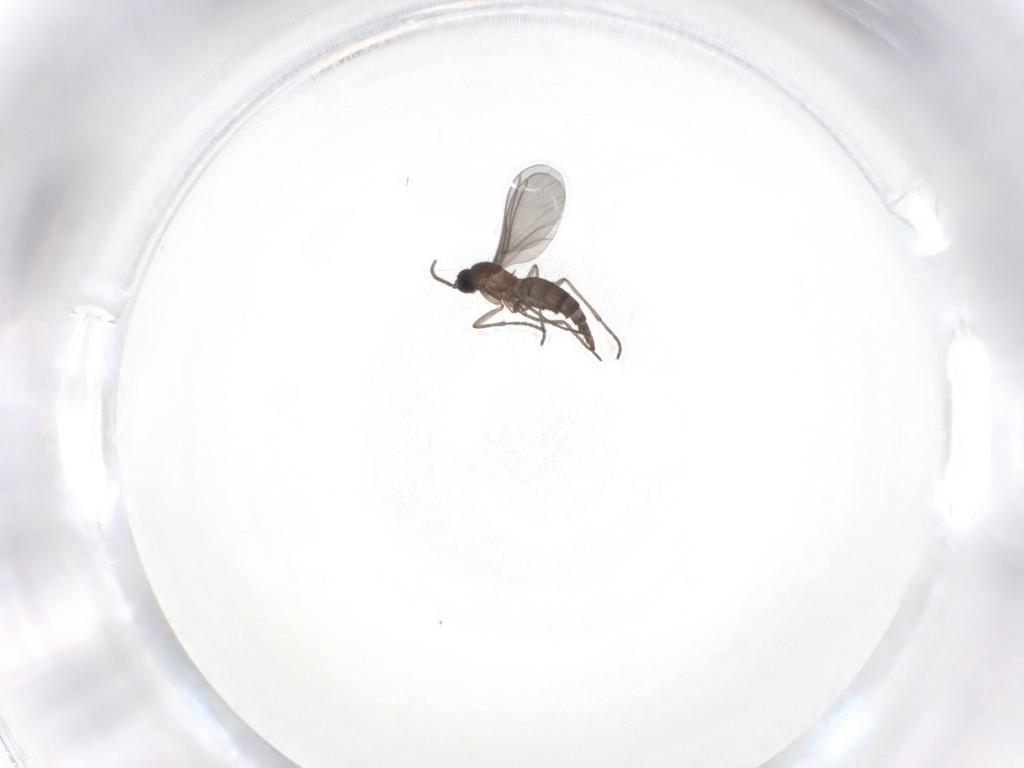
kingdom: Animalia
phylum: Arthropoda
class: Insecta
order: Diptera
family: Sciaridae
